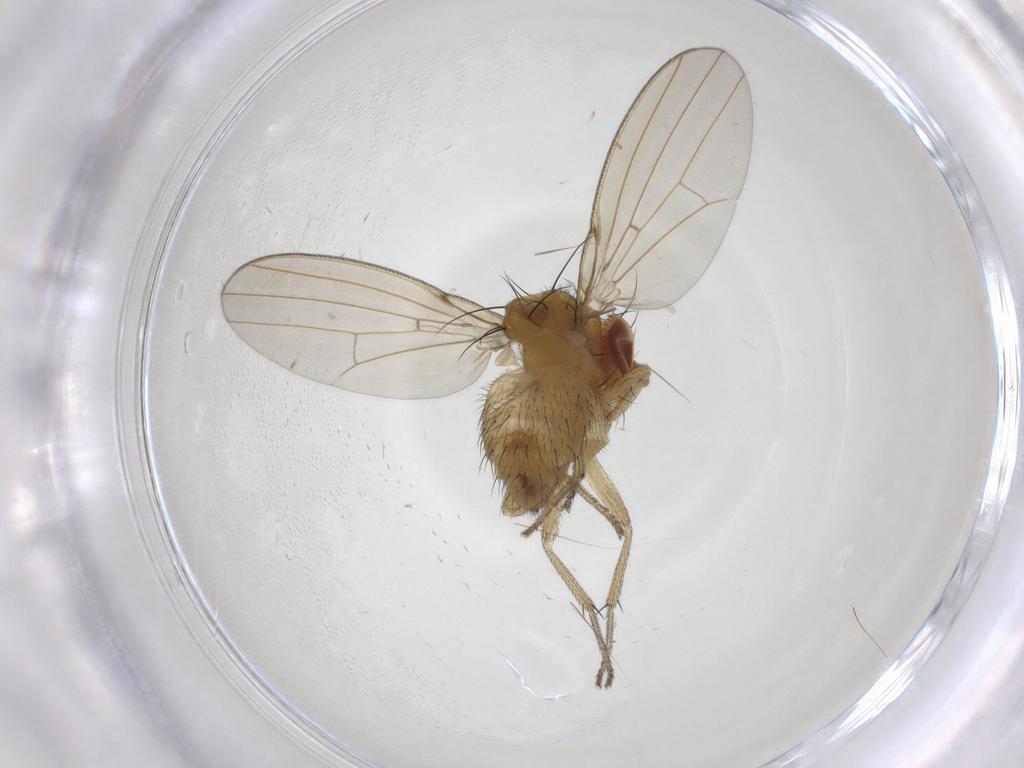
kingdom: Animalia
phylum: Arthropoda
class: Insecta
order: Diptera
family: Lauxaniidae
